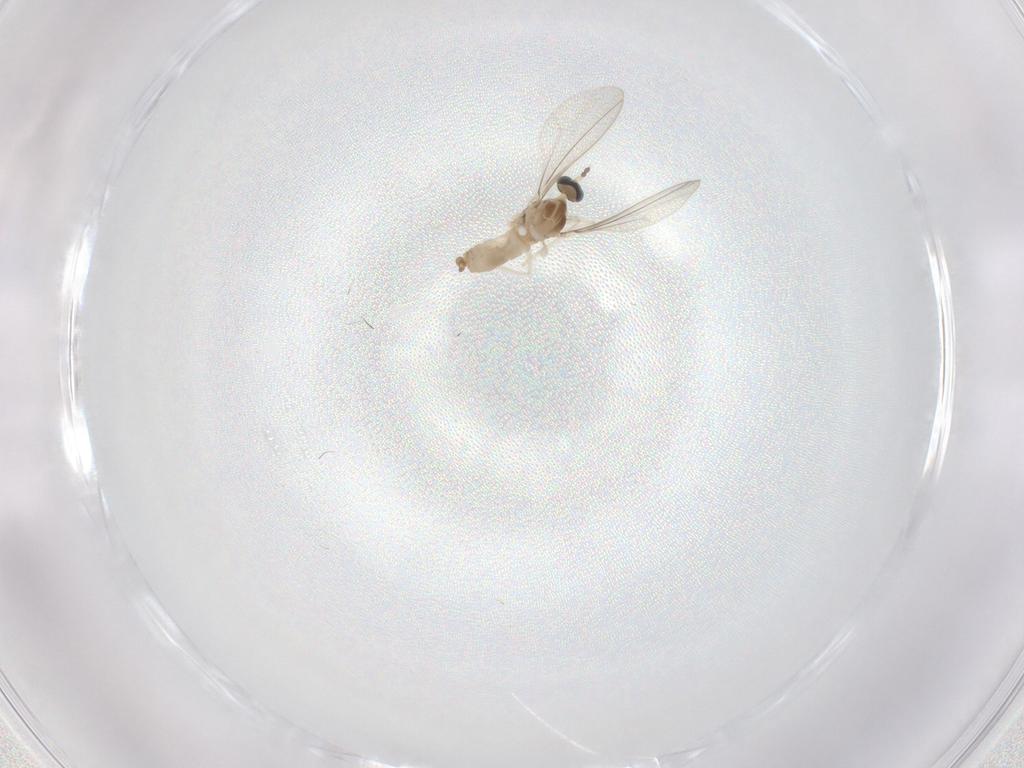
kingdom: Animalia
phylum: Arthropoda
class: Insecta
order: Diptera
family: Cecidomyiidae
